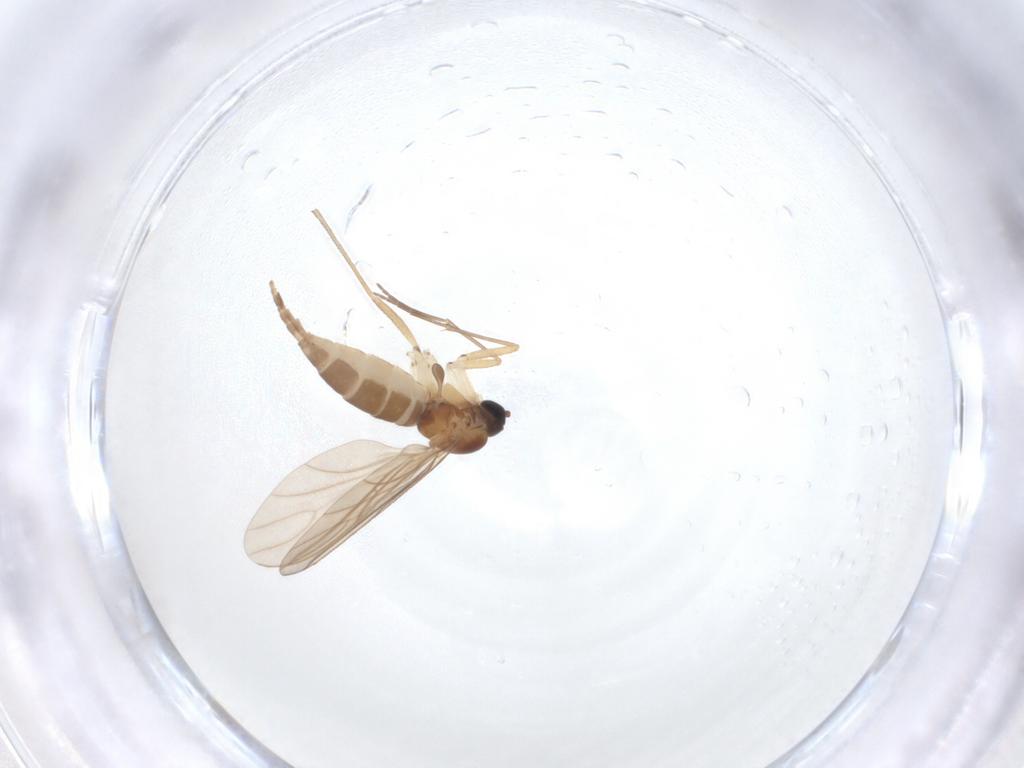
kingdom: Animalia
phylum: Arthropoda
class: Insecta
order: Diptera
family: Sciaridae
